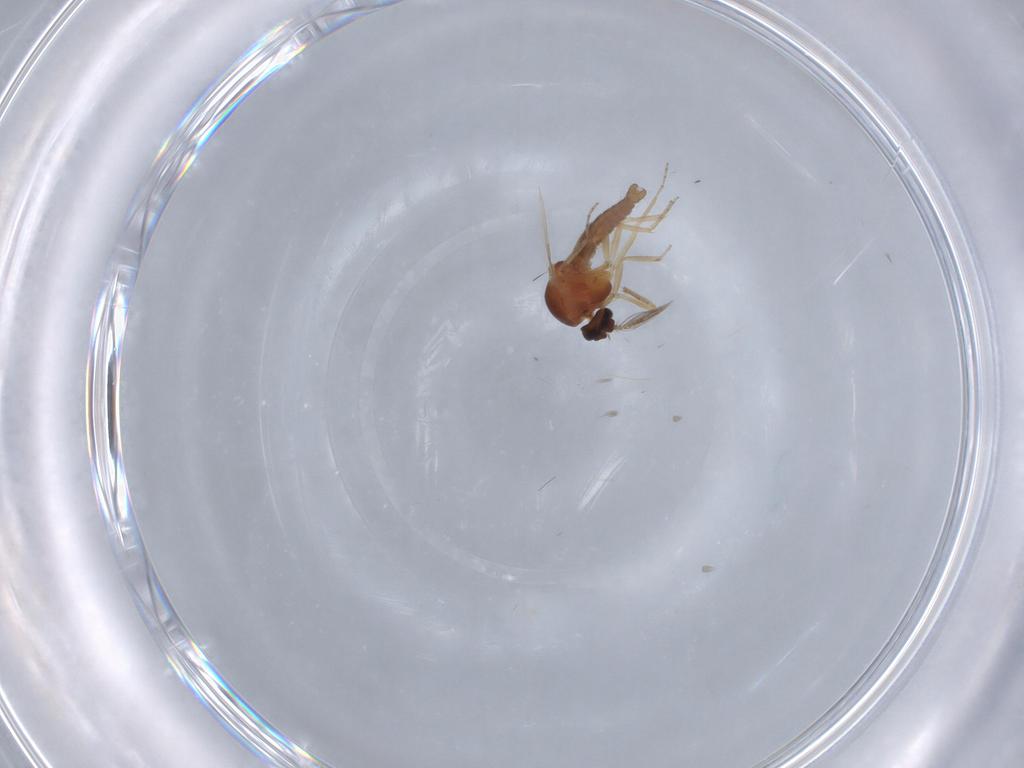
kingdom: Animalia
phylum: Arthropoda
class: Insecta
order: Diptera
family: Ceratopogonidae
